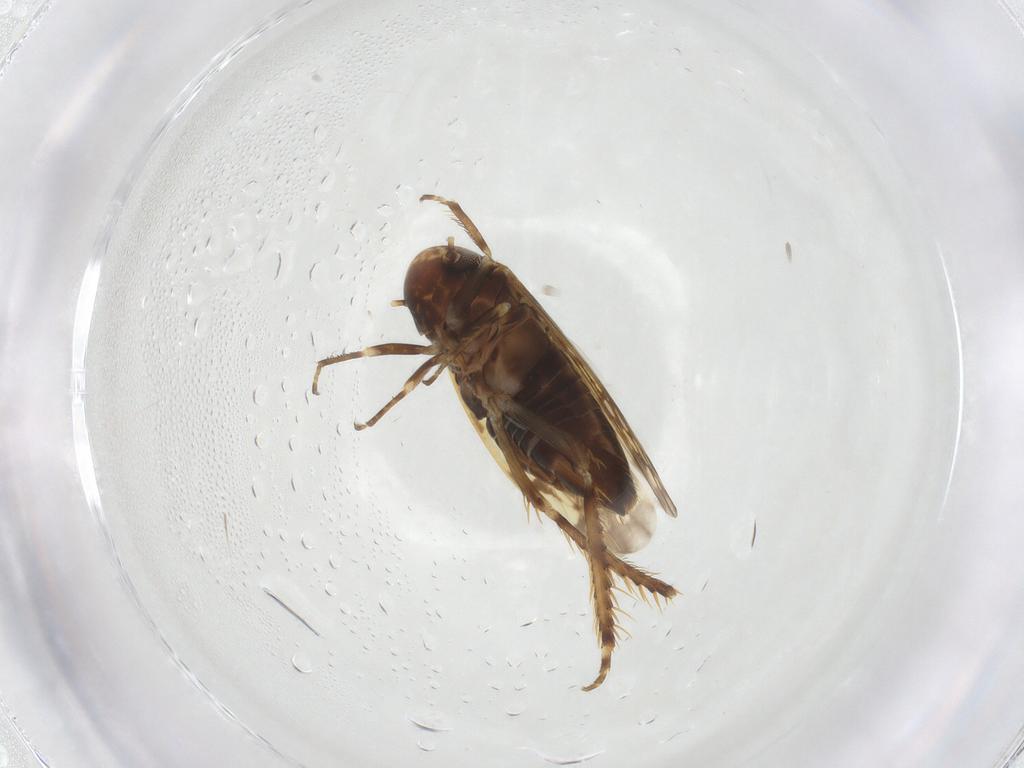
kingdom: Animalia
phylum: Arthropoda
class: Insecta
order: Hemiptera
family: Cicadellidae
